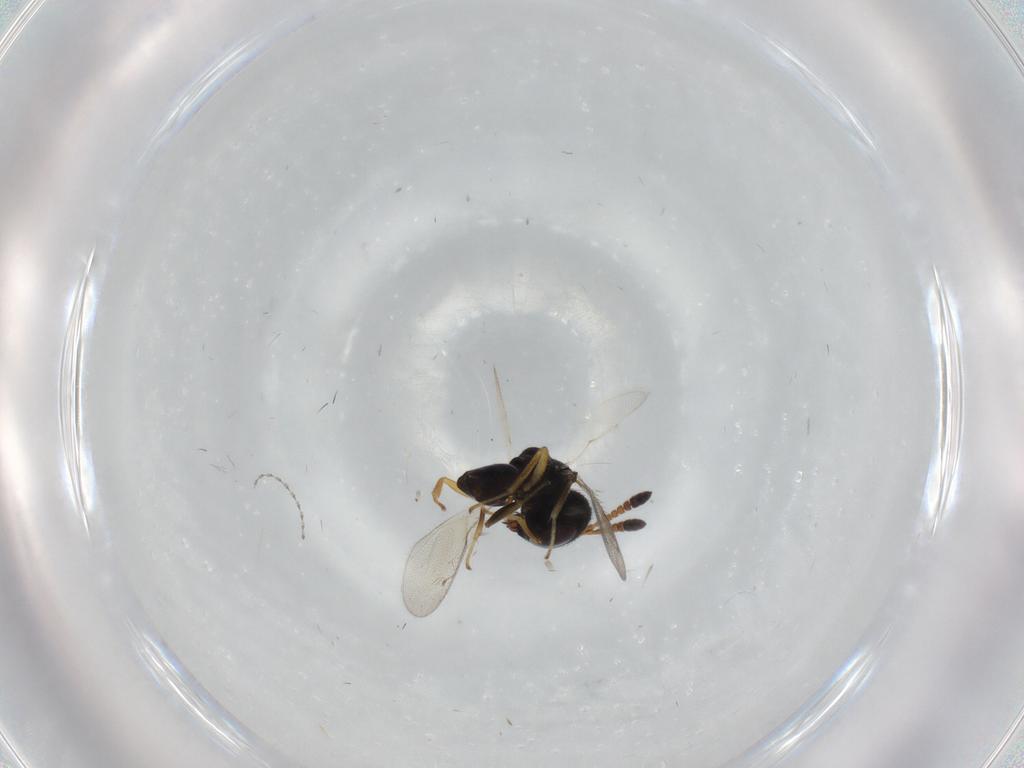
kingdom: Animalia
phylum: Arthropoda
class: Insecta
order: Hymenoptera
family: Pteromalidae
